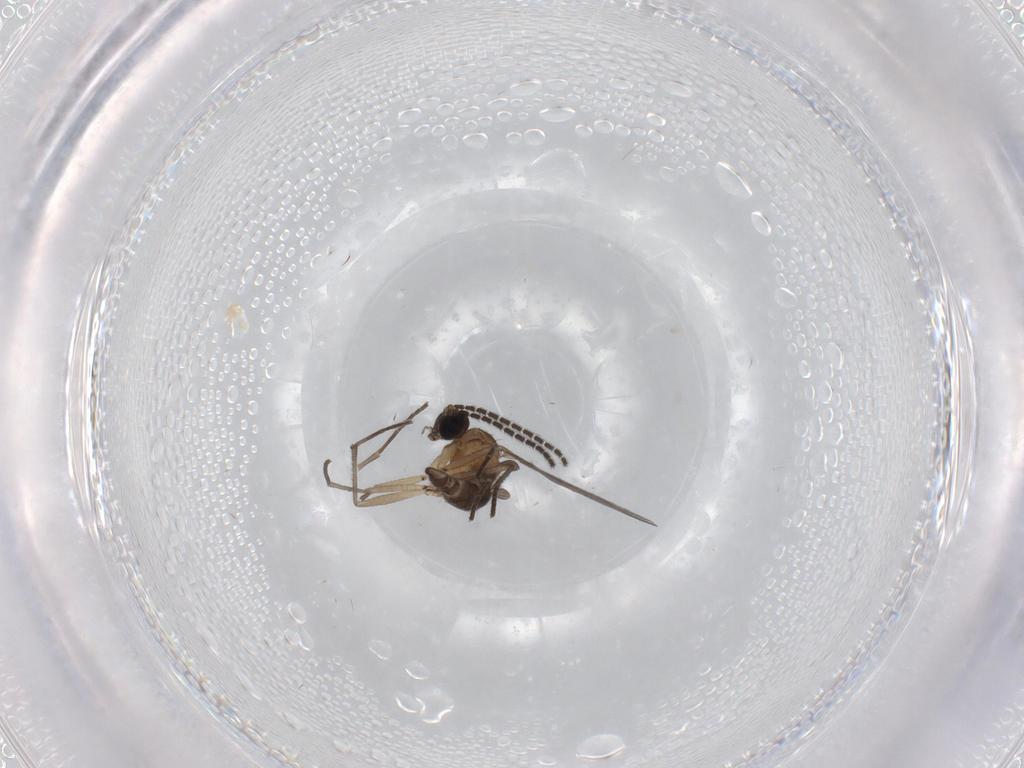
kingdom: Animalia
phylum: Arthropoda
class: Insecta
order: Diptera
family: Sciaridae
